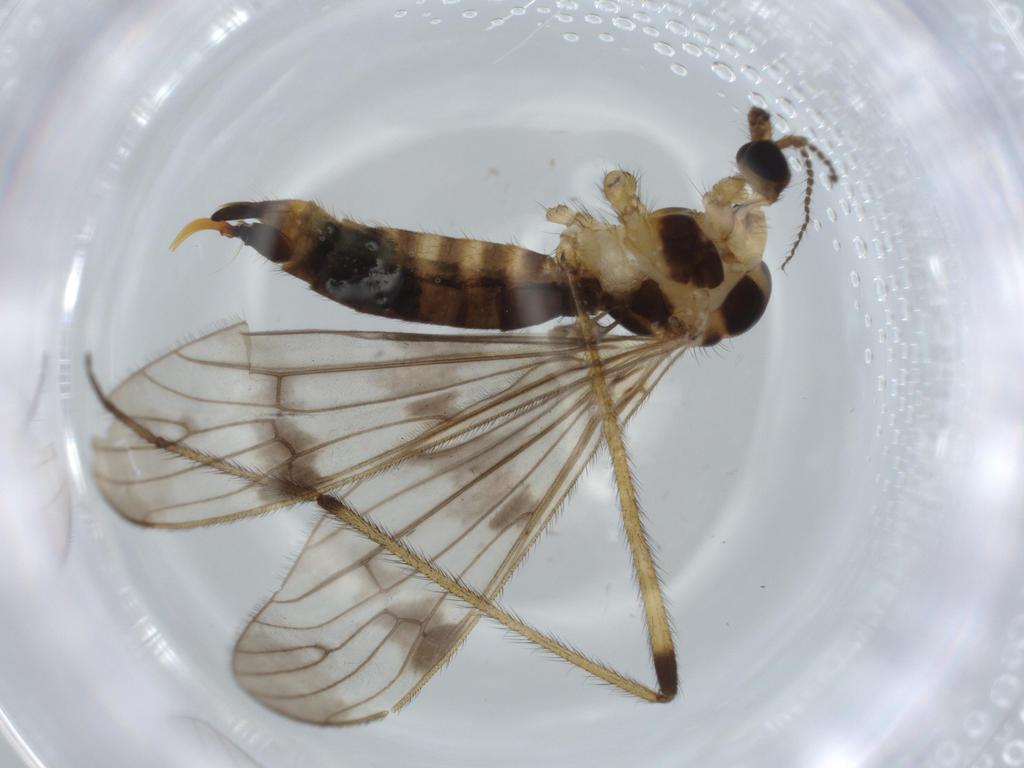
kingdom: Animalia
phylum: Arthropoda
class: Insecta
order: Diptera
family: Limoniidae
